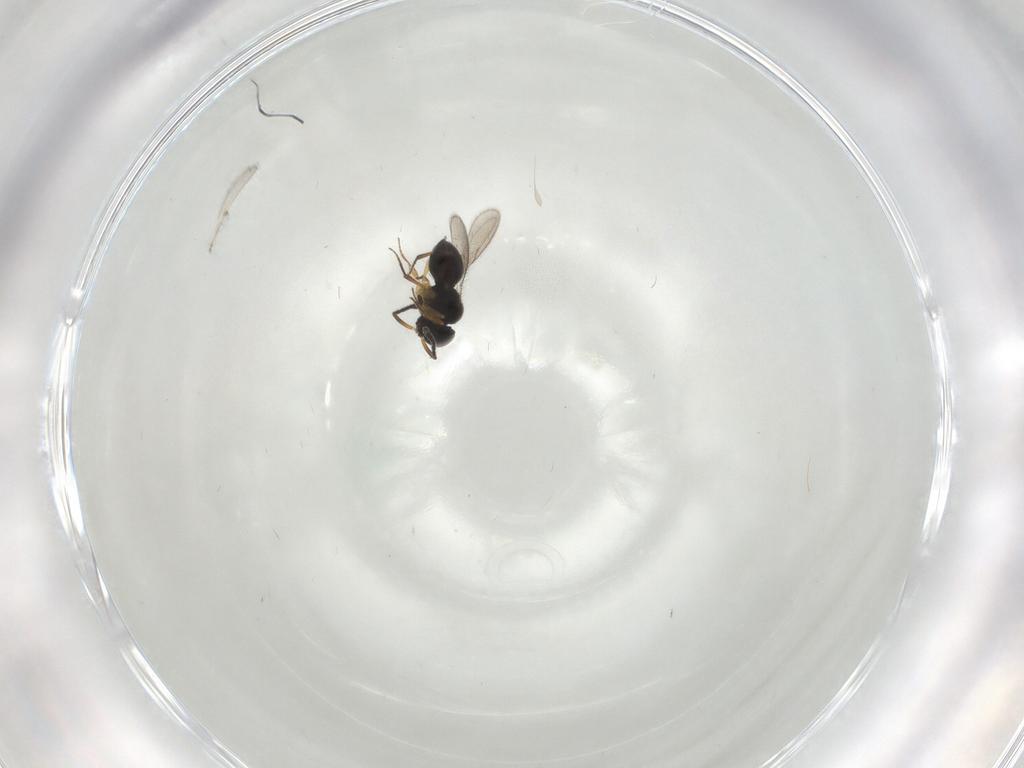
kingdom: Animalia
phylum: Arthropoda
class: Insecta
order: Hymenoptera
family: Scelionidae
